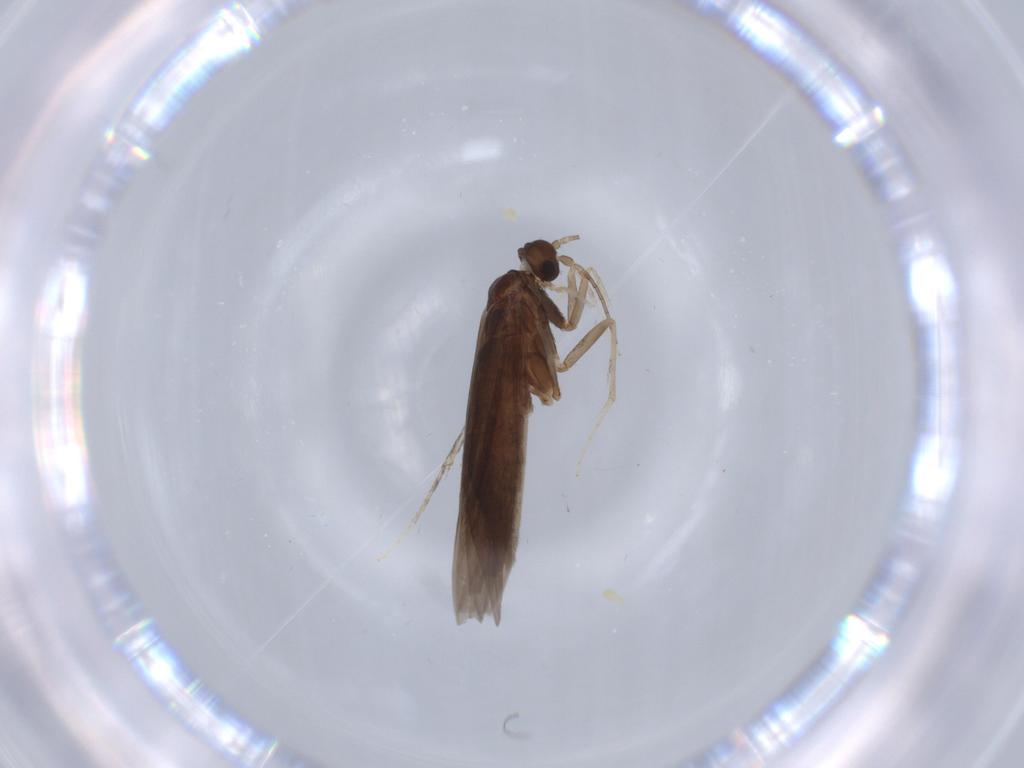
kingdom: Animalia
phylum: Arthropoda
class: Insecta
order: Trichoptera
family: Xiphocentronidae
